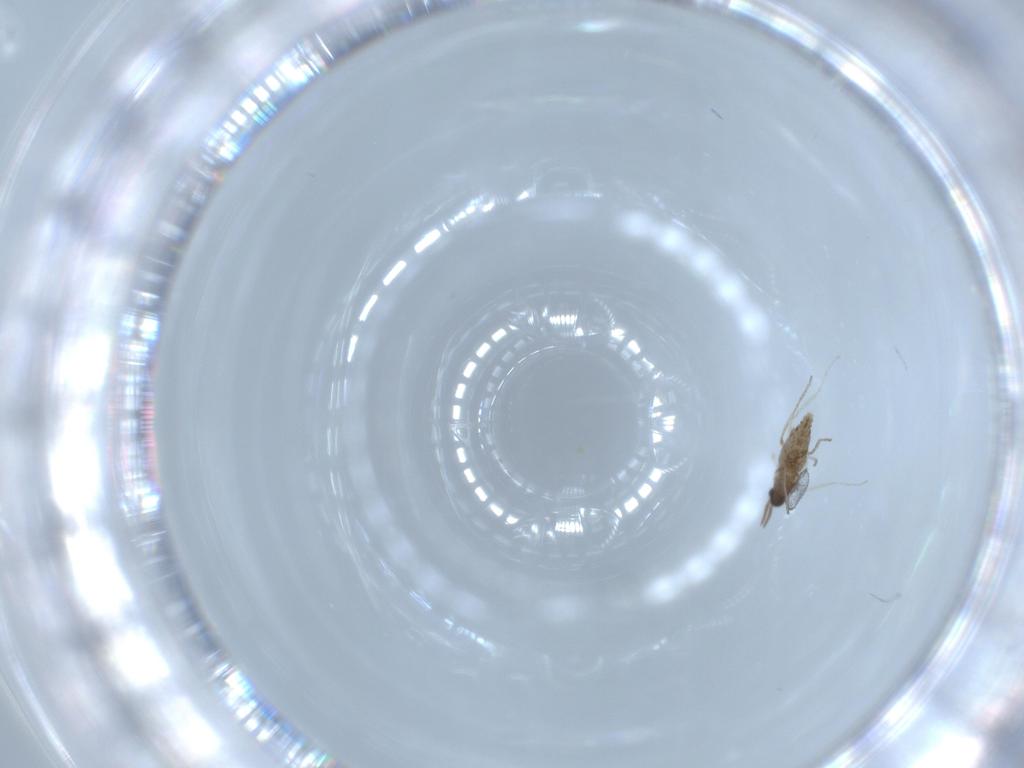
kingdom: Animalia
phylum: Arthropoda
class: Insecta
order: Diptera
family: Cecidomyiidae
